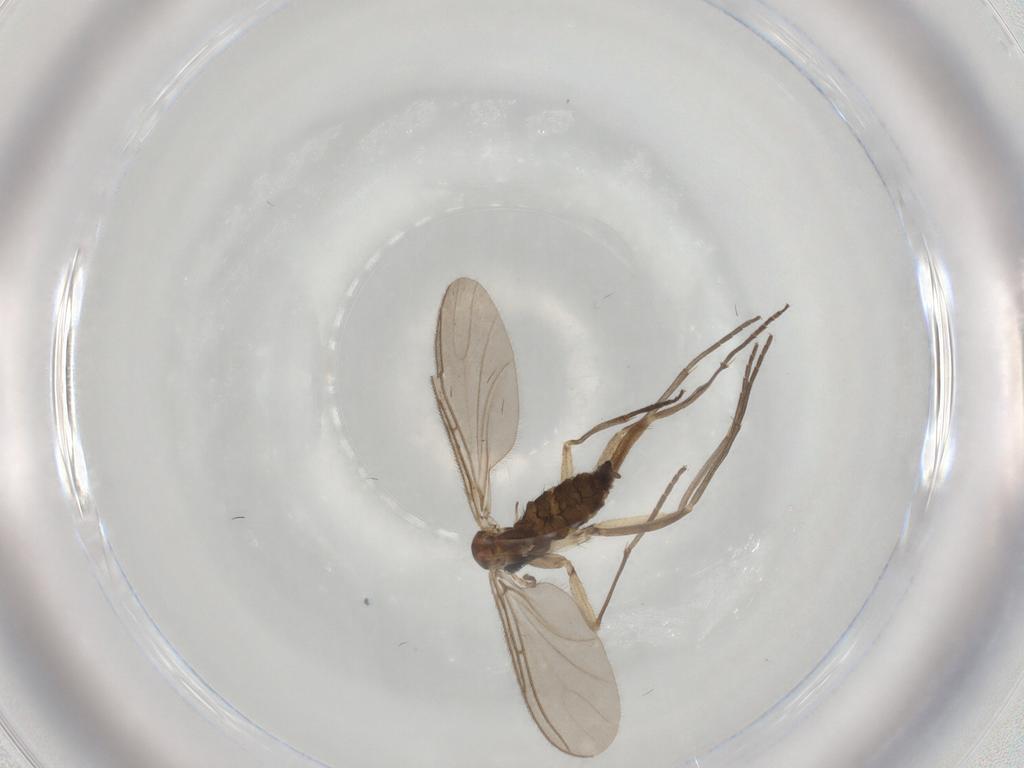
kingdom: Animalia
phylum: Arthropoda
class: Insecta
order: Diptera
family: Sciaridae
